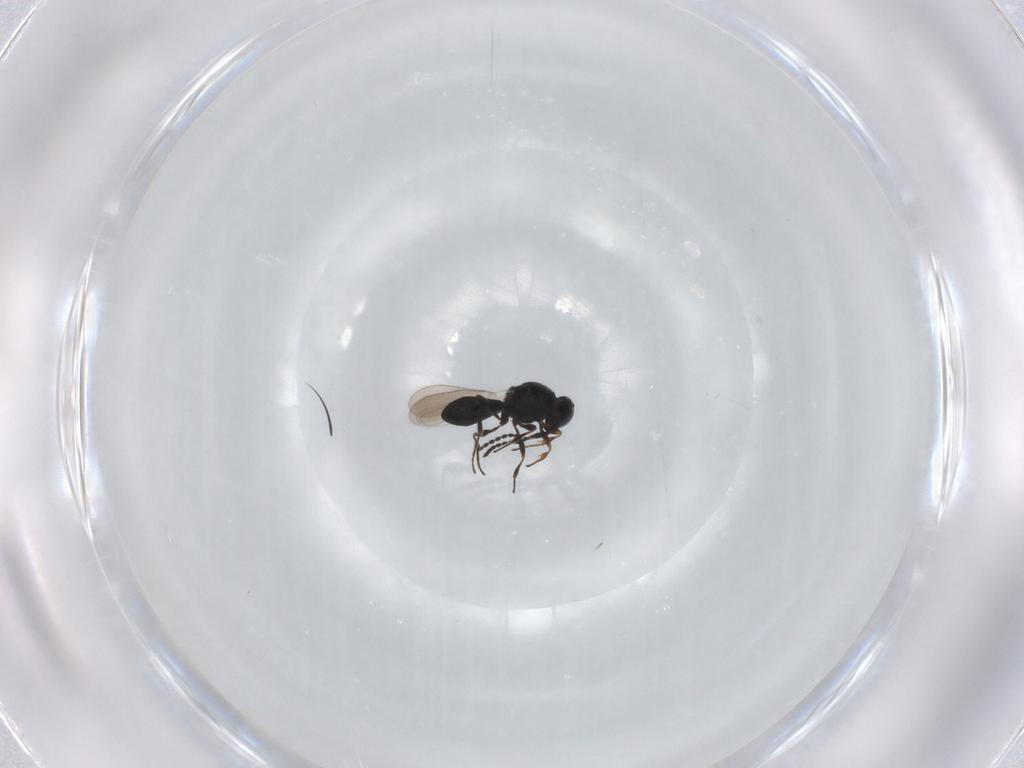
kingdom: Animalia
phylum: Arthropoda
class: Insecta
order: Hymenoptera
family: Platygastridae
